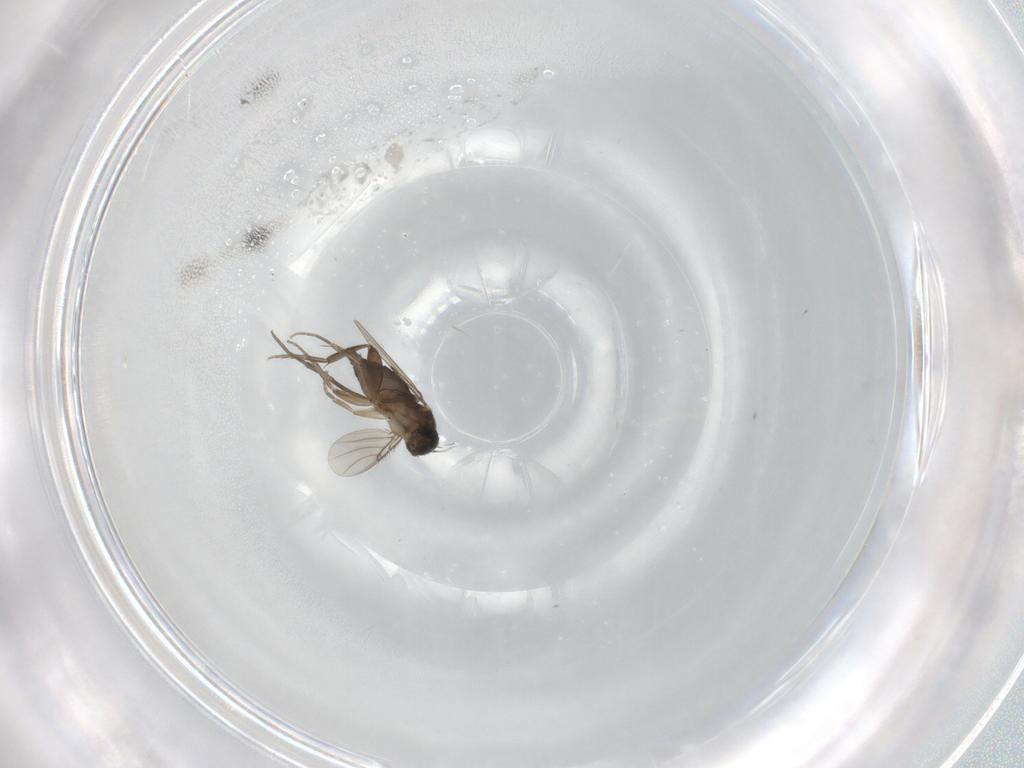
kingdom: Animalia
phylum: Arthropoda
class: Insecta
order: Diptera
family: Phoridae
